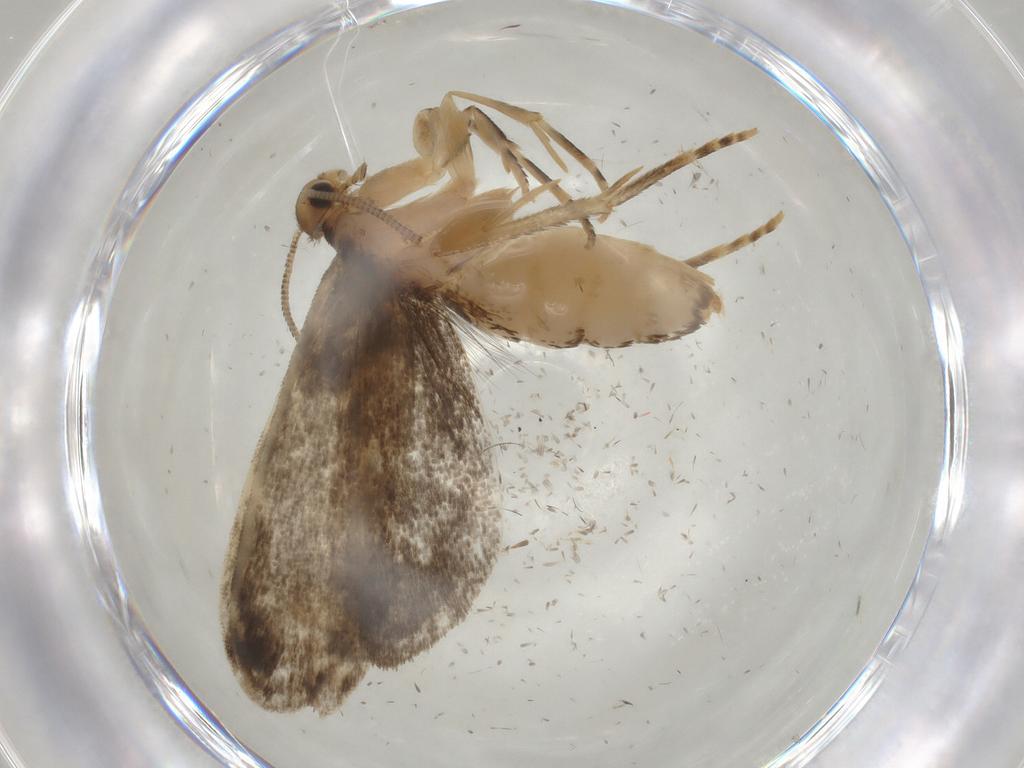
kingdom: Animalia
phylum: Arthropoda
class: Insecta
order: Lepidoptera
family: Dryadaulidae
